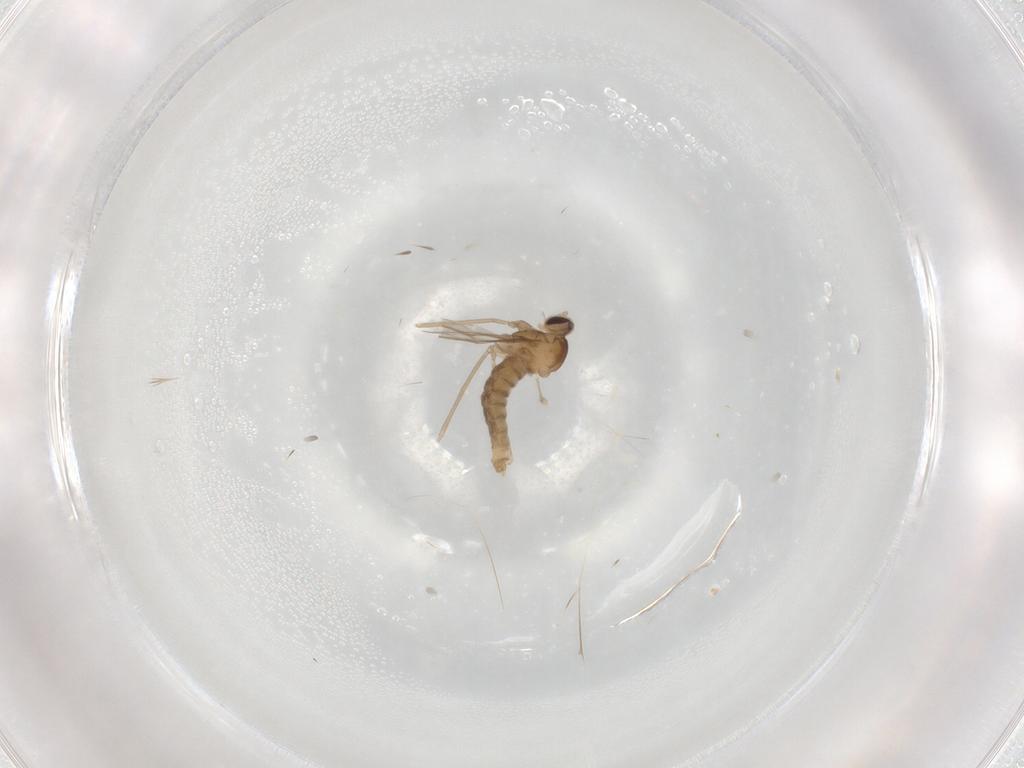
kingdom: Animalia
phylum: Arthropoda
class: Insecta
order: Diptera
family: Cecidomyiidae
